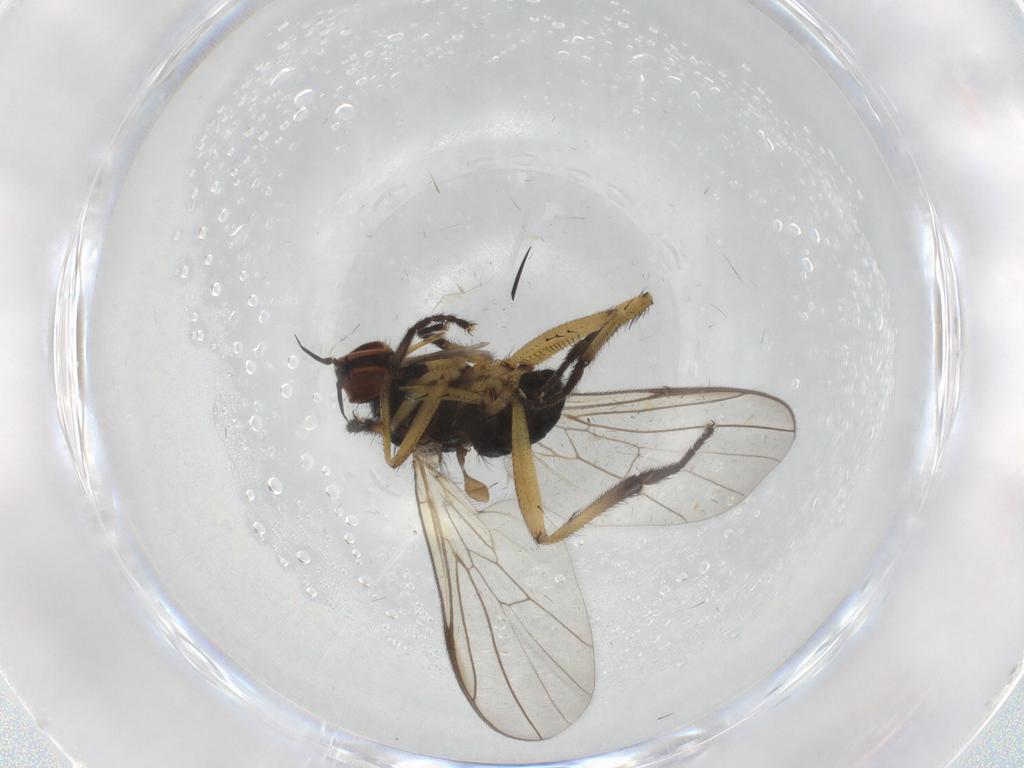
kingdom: Animalia
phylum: Arthropoda
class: Insecta
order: Diptera
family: Empididae
